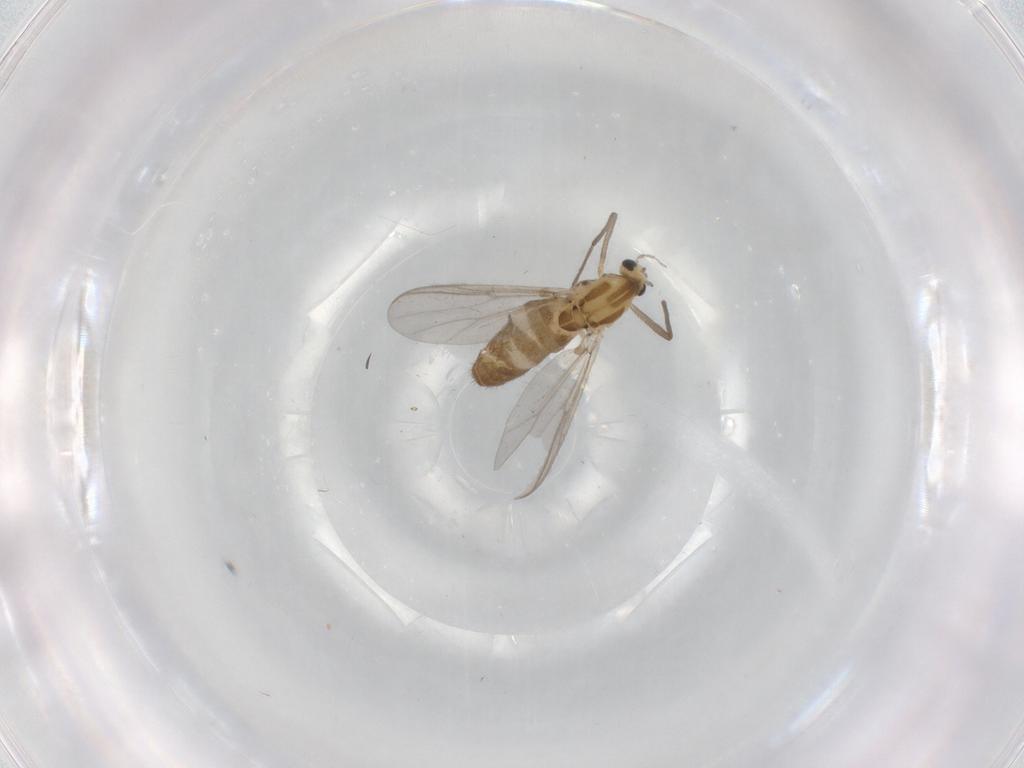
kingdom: Animalia
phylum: Arthropoda
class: Insecta
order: Diptera
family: Chironomidae
